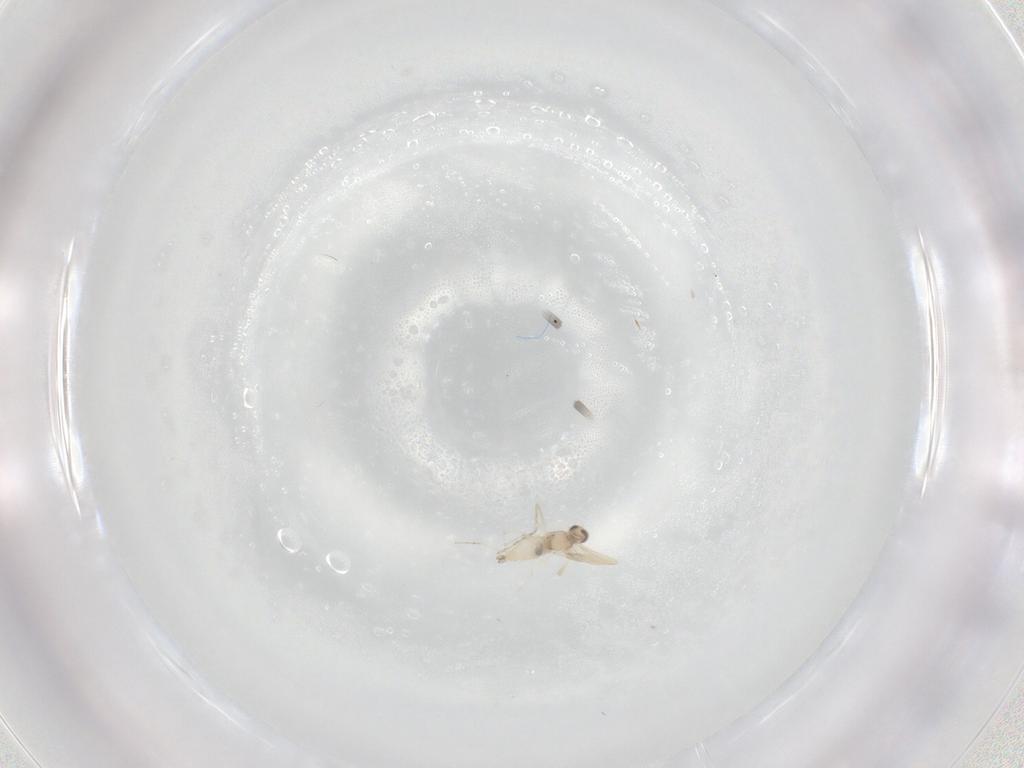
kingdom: Animalia
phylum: Arthropoda
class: Insecta
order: Diptera
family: Cecidomyiidae
